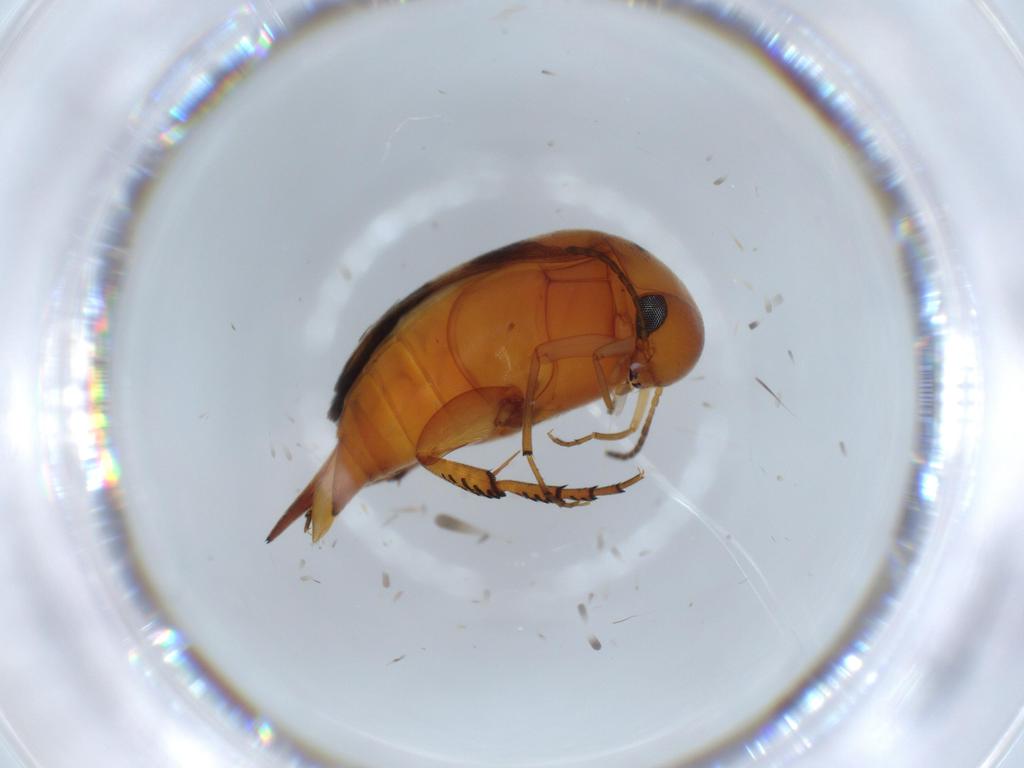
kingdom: Animalia
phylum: Arthropoda
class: Insecta
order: Coleoptera
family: Mordellidae
